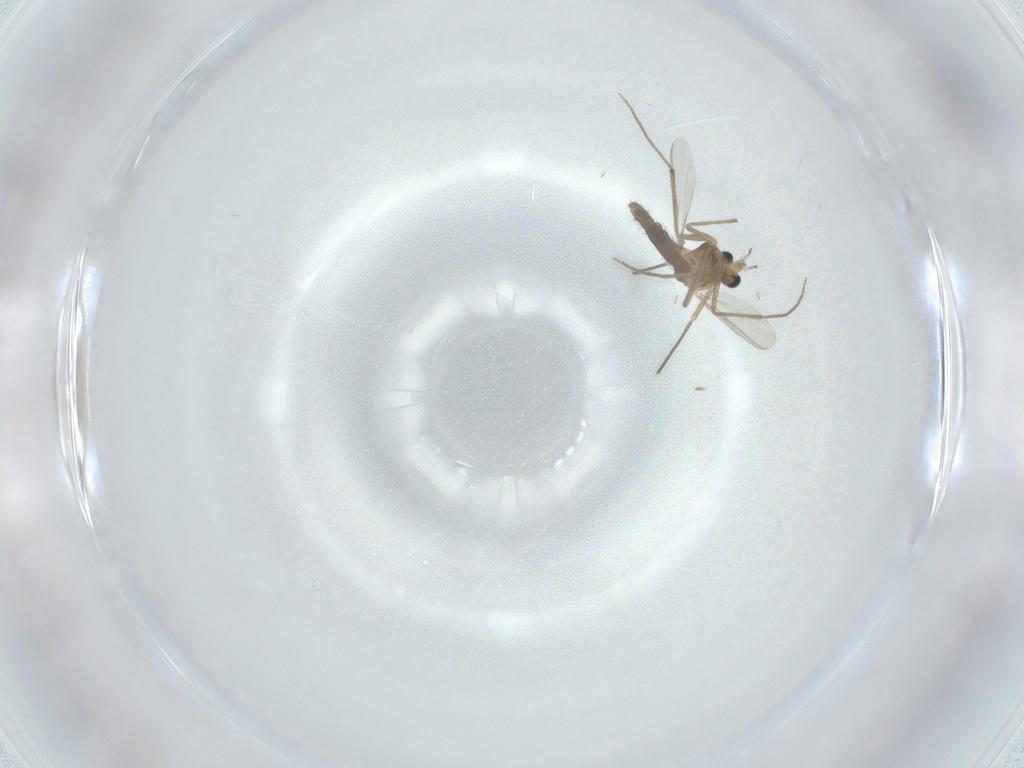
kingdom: Animalia
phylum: Arthropoda
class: Insecta
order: Diptera
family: Chironomidae
